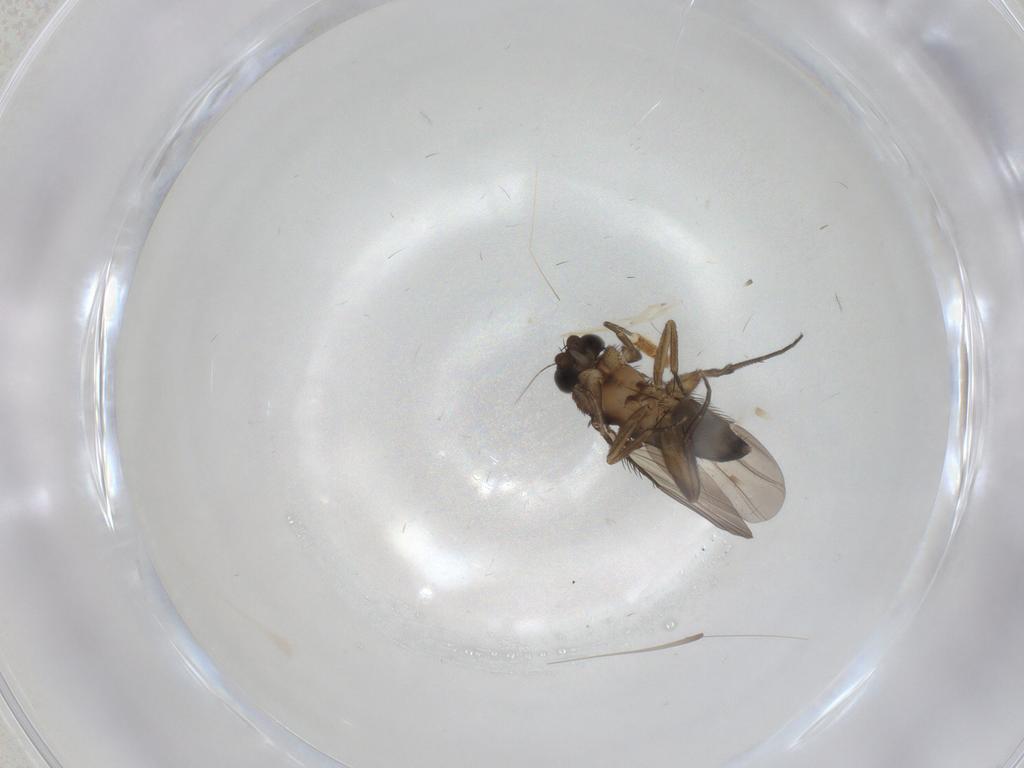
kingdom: Animalia
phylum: Arthropoda
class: Insecta
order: Diptera
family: Phoridae
